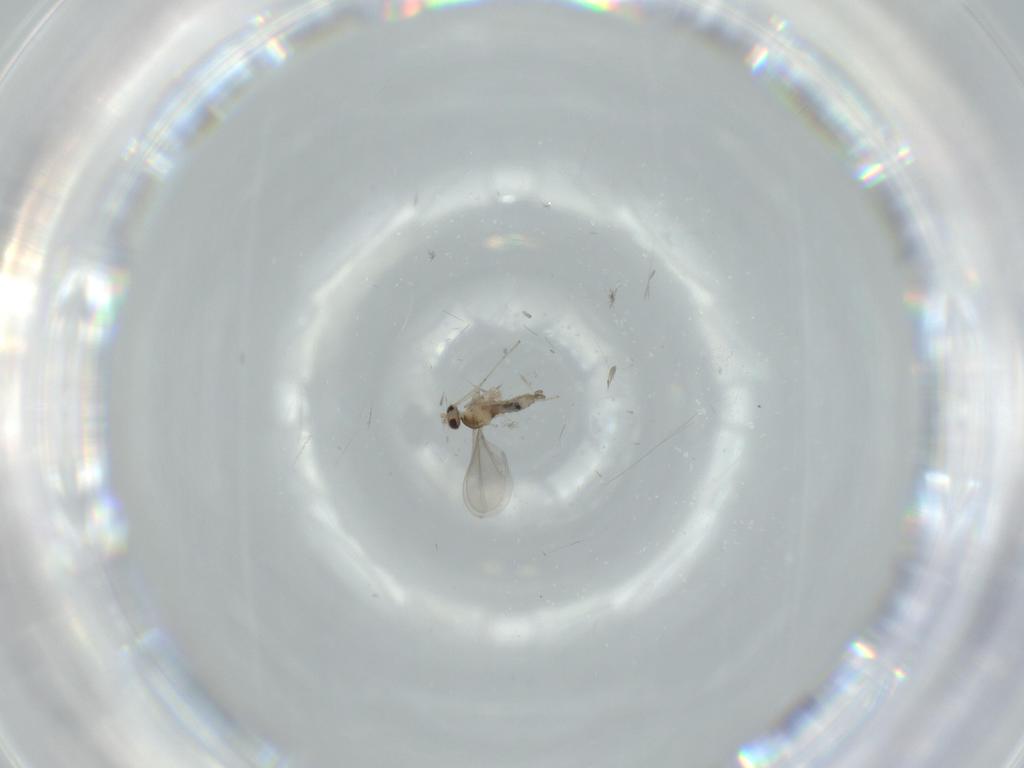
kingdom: Animalia
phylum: Arthropoda
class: Insecta
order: Diptera
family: Cecidomyiidae
